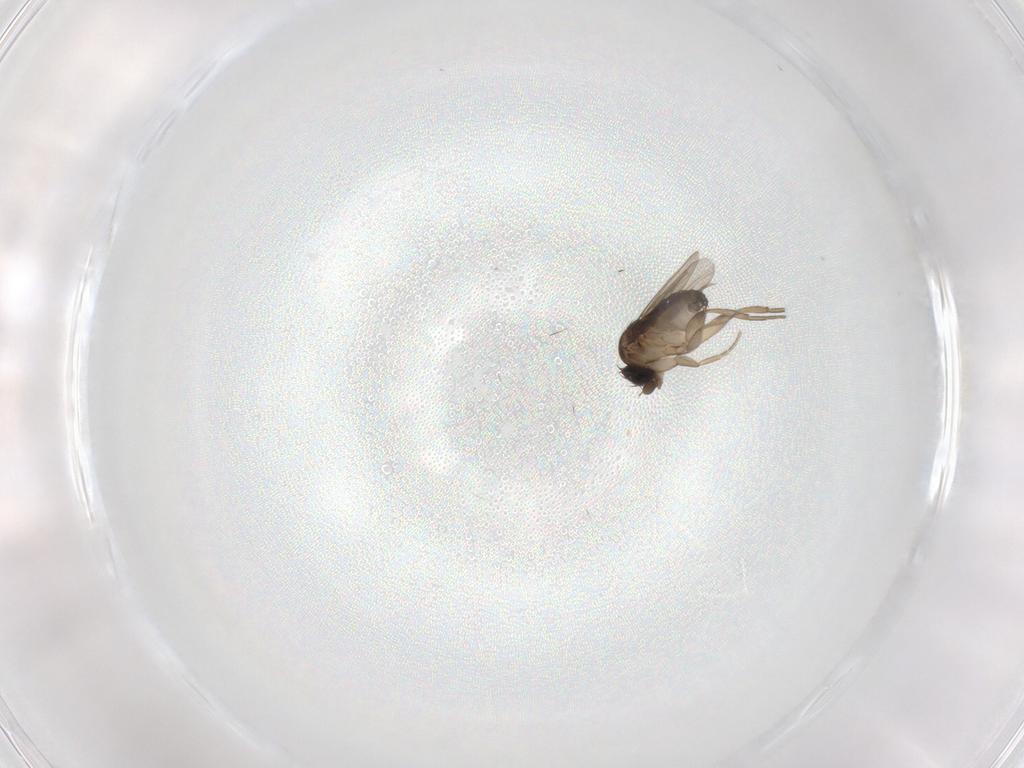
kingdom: Animalia
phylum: Arthropoda
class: Insecta
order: Diptera
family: Phoridae
